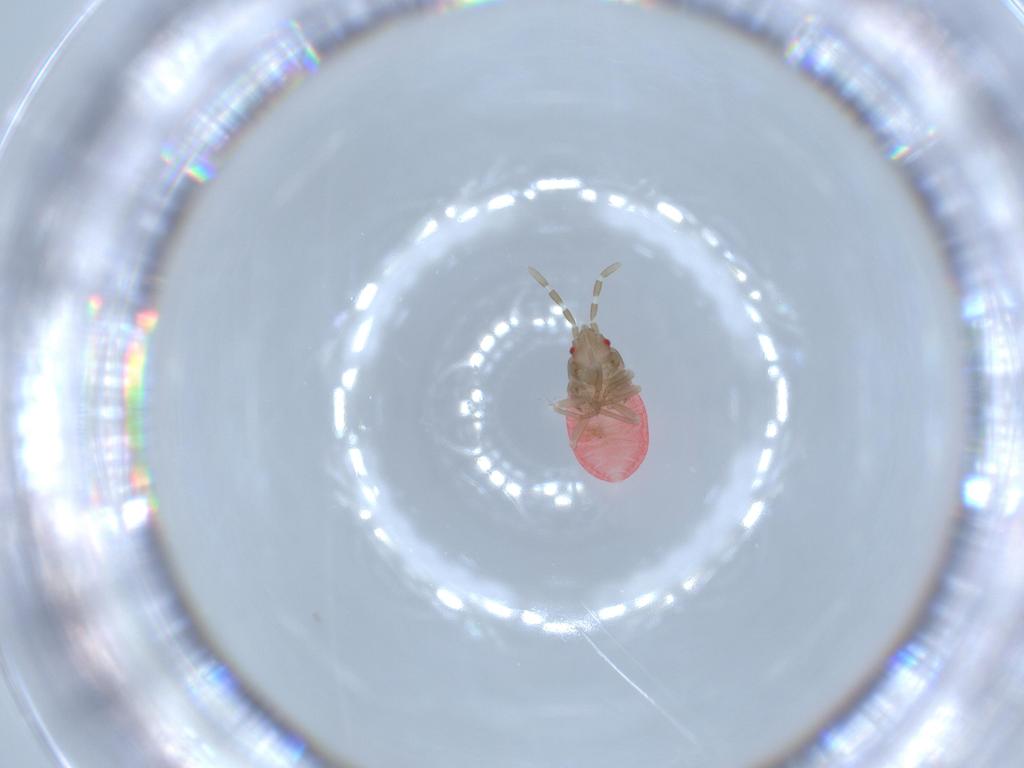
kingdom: Animalia
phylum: Arthropoda
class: Insecta
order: Hemiptera
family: Rhyparochromidae
